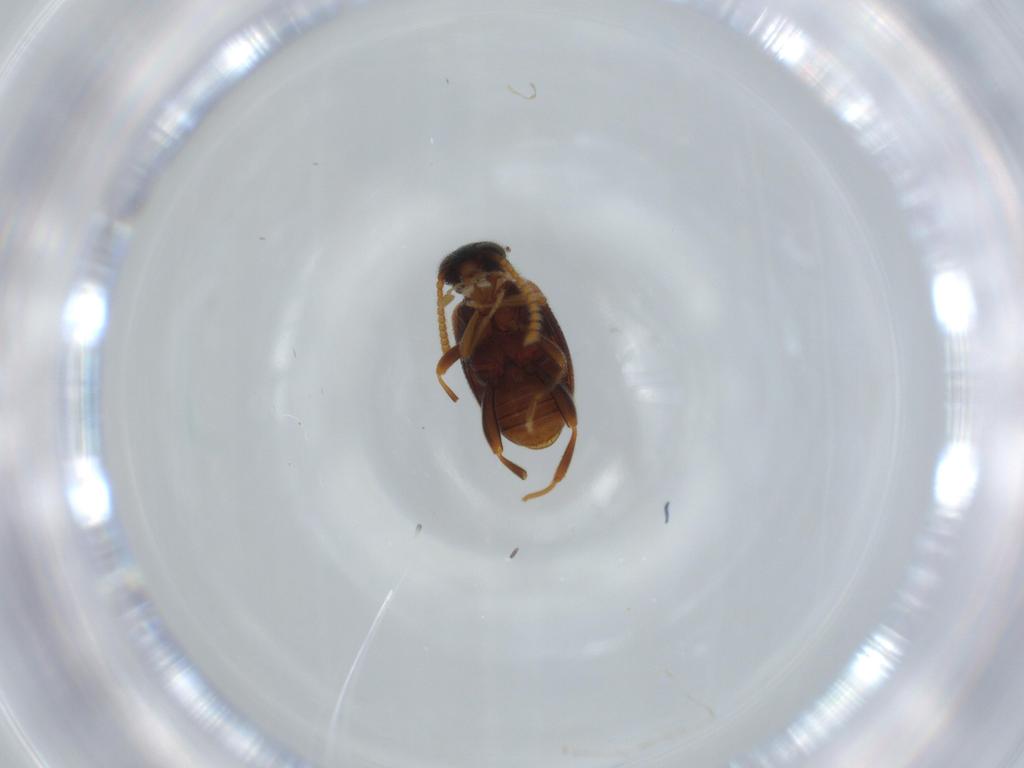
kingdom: Animalia
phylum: Arthropoda
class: Insecta
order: Coleoptera
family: Aderidae
